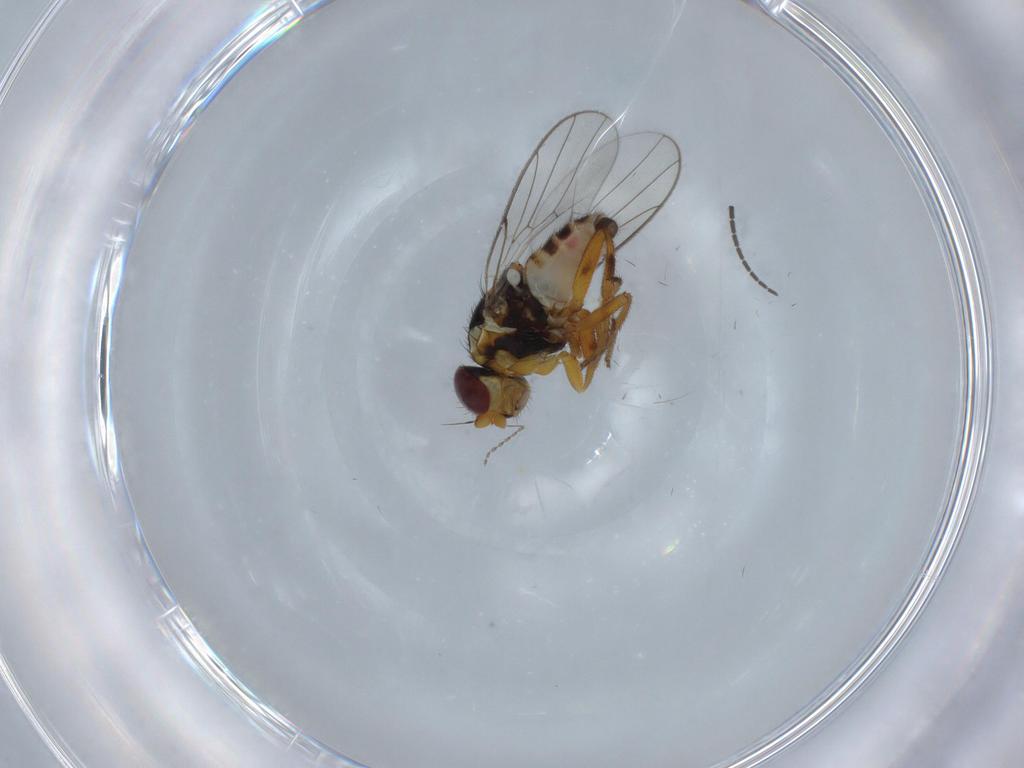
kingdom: Animalia
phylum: Arthropoda
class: Insecta
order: Diptera
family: Chloropidae
